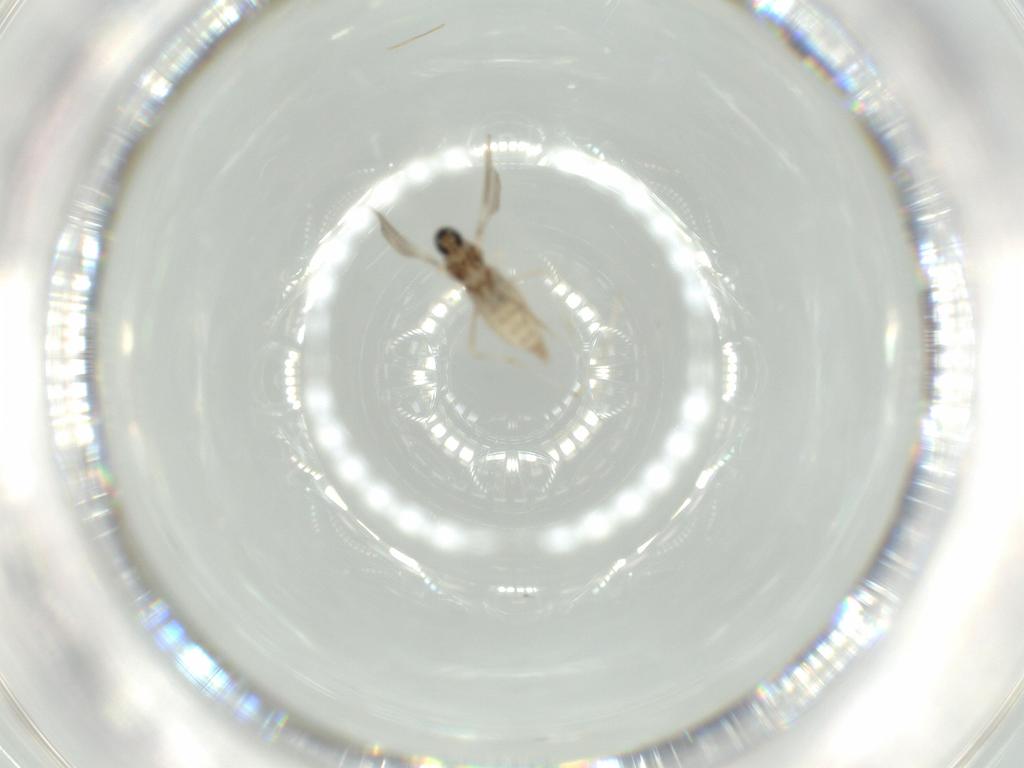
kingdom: Animalia
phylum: Arthropoda
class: Insecta
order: Diptera
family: Cecidomyiidae
